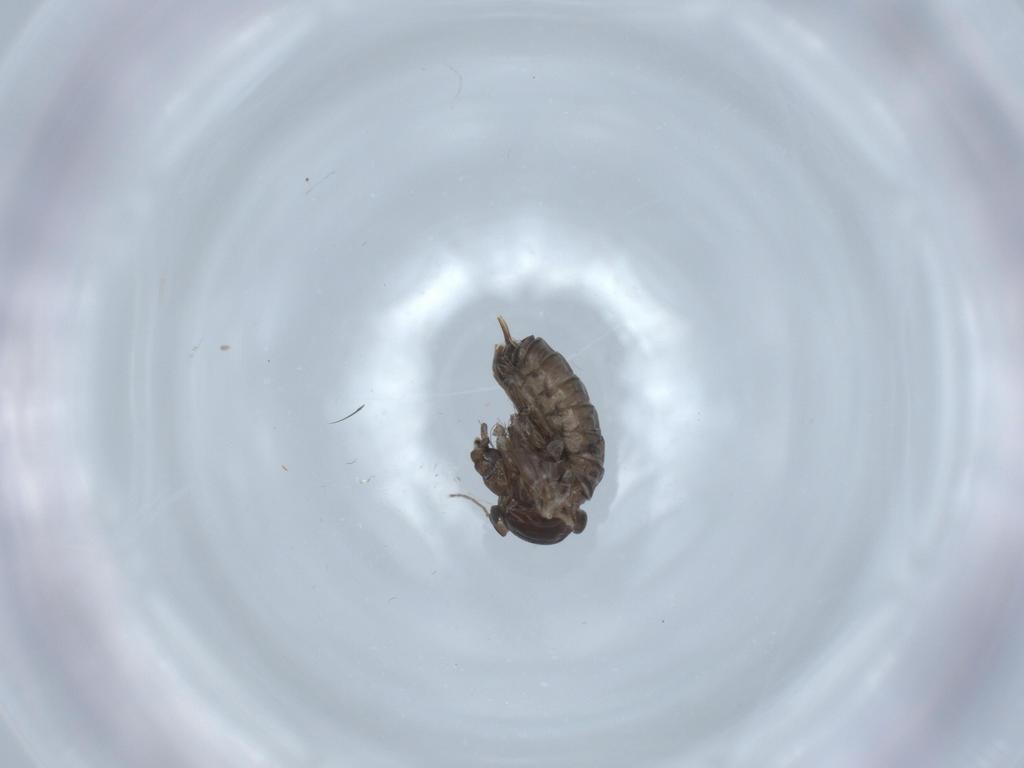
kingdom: Animalia
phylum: Arthropoda
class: Insecta
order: Diptera
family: Psychodidae
